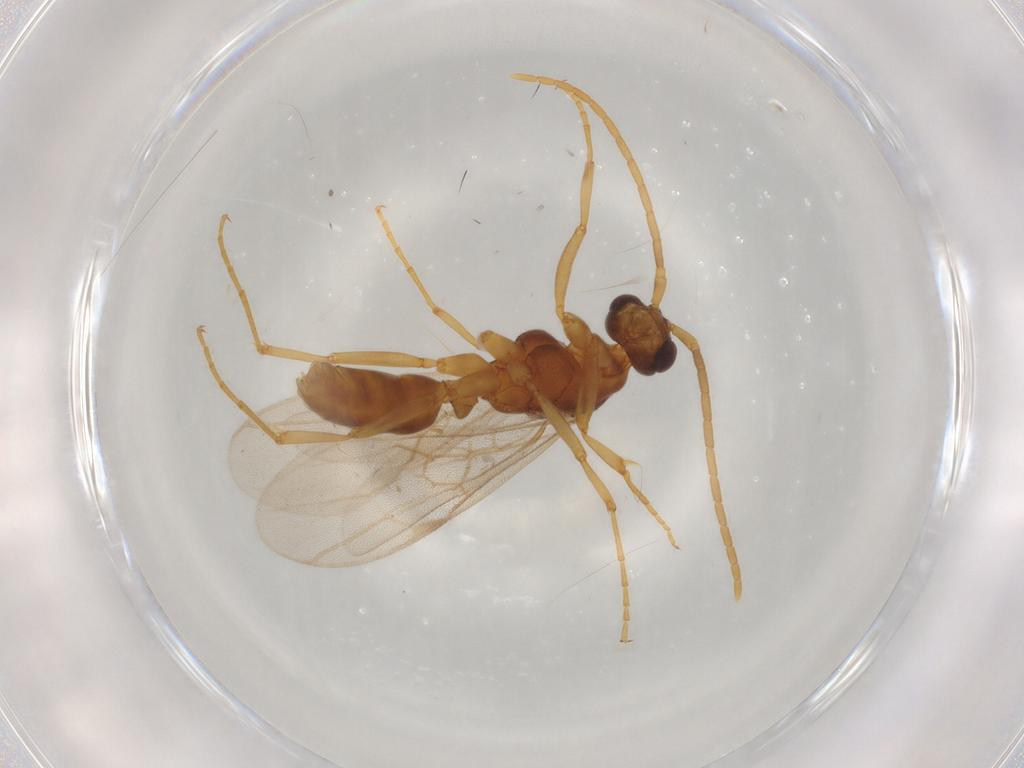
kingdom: Animalia
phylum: Arthropoda
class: Insecta
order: Hymenoptera
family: Formicidae
